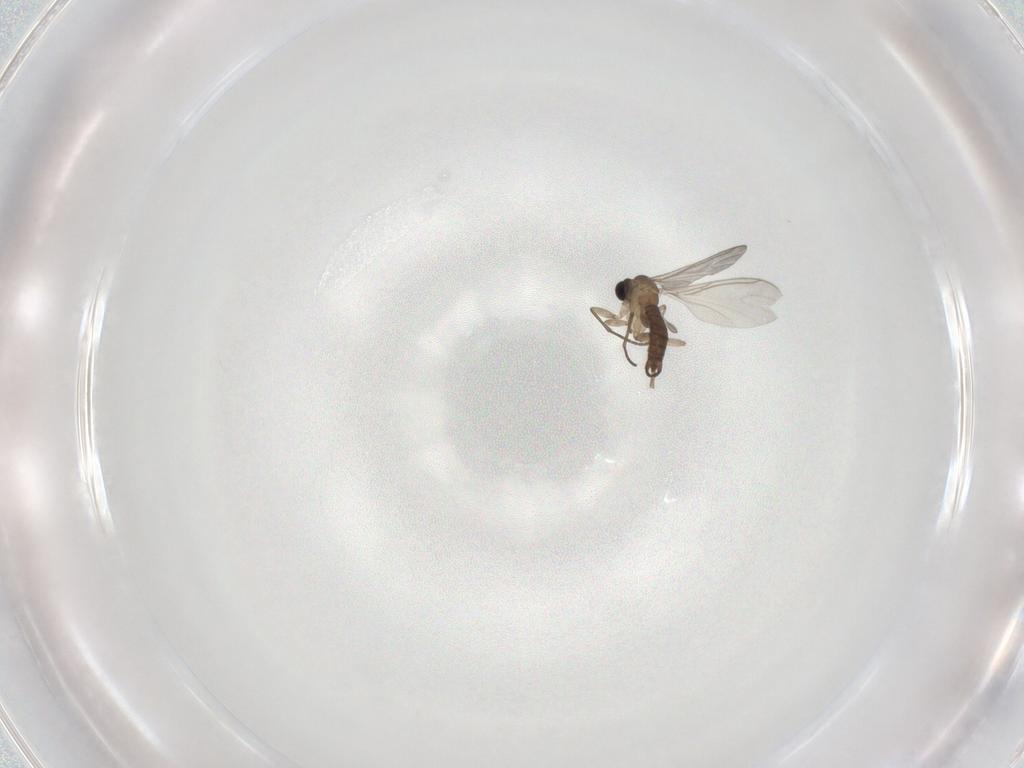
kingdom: Animalia
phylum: Arthropoda
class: Insecta
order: Diptera
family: Sciaridae
